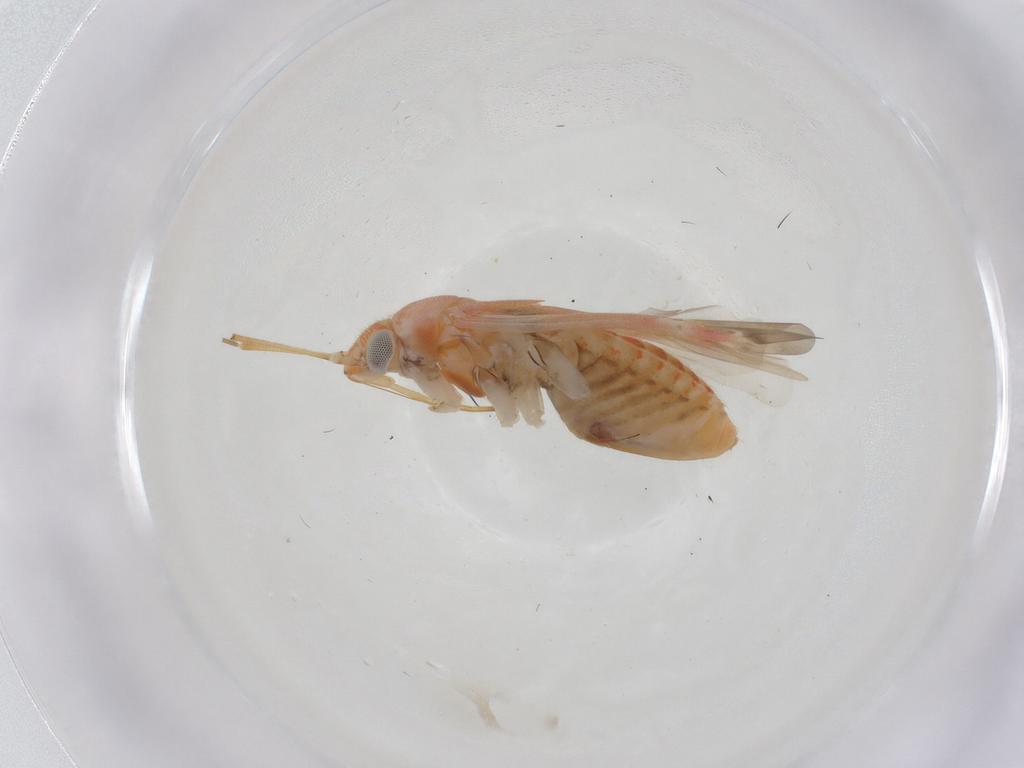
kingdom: Animalia
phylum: Arthropoda
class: Insecta
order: Hemiptera
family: Miridae
